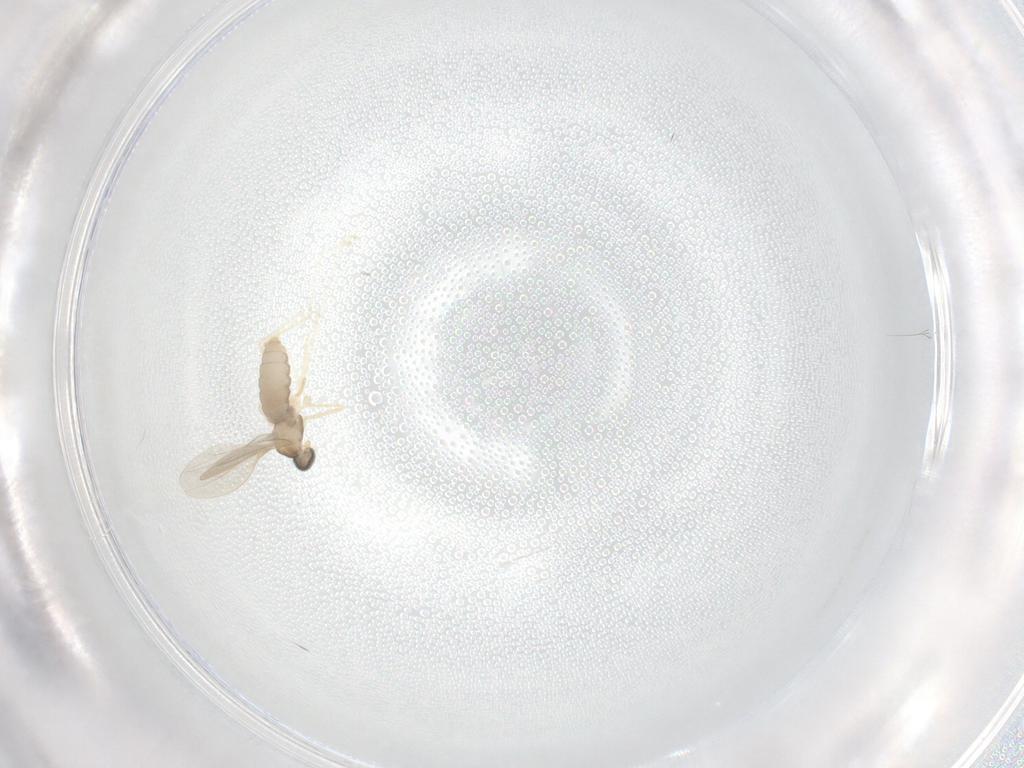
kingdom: Animalia
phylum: Arthropoda
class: Insecta
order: Diptera
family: Cecidomyiidae
